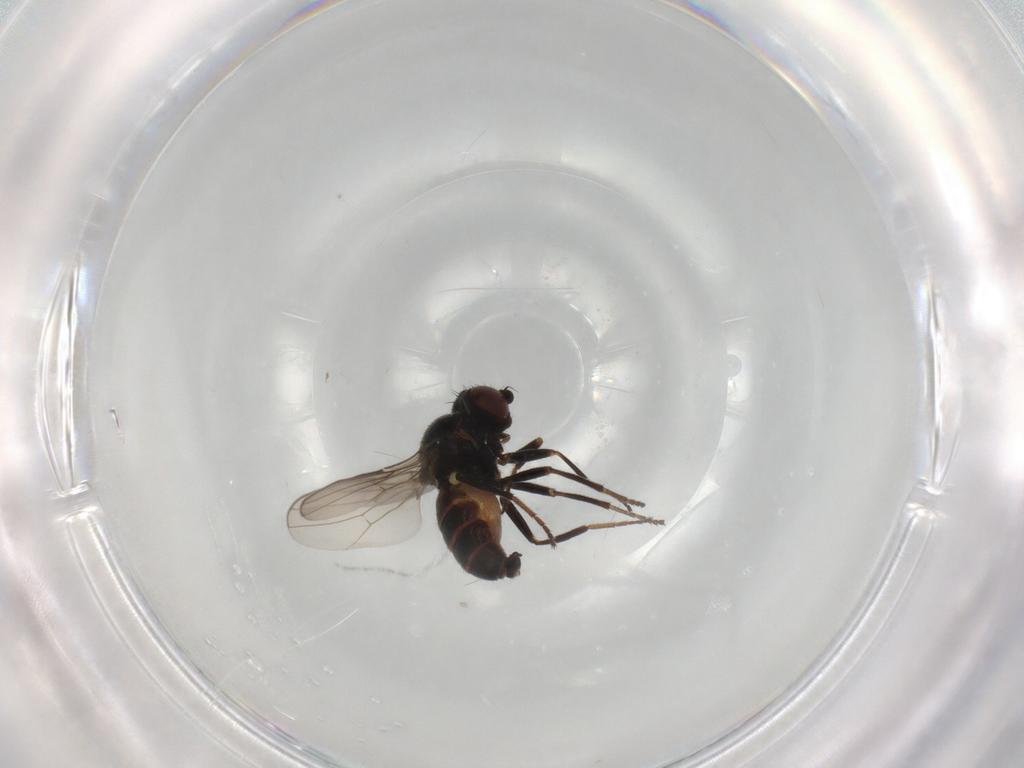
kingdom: Animalia
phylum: Arthropoda
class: Insecta
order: Diptera
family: Chloropidae
